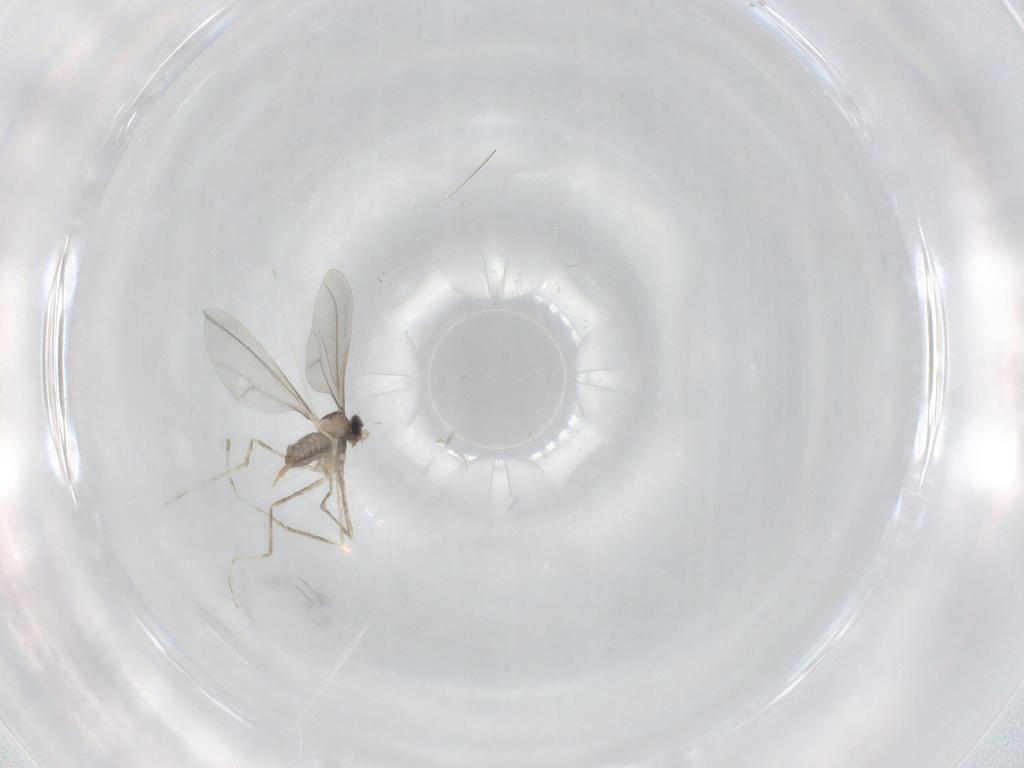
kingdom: Animalia
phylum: Arthropoda
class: Insecta
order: Diptera
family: Cecidomyiidae
